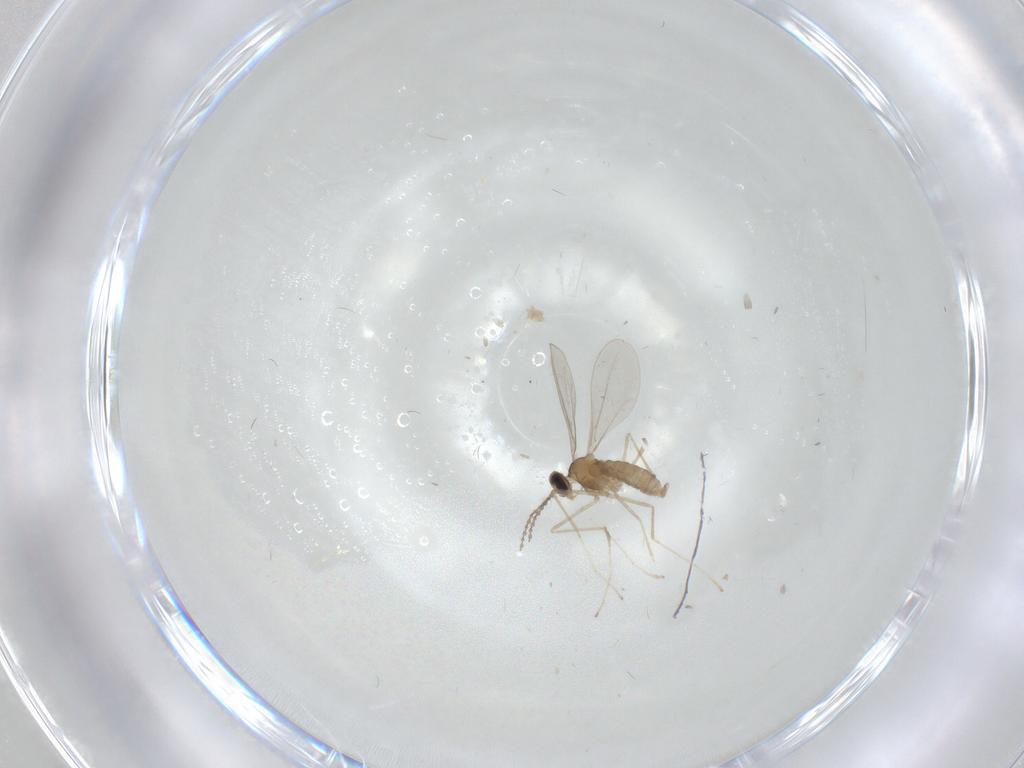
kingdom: Animalia
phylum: Arthropoda
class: Insecta
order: Diptera
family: Cecidomyiidae
